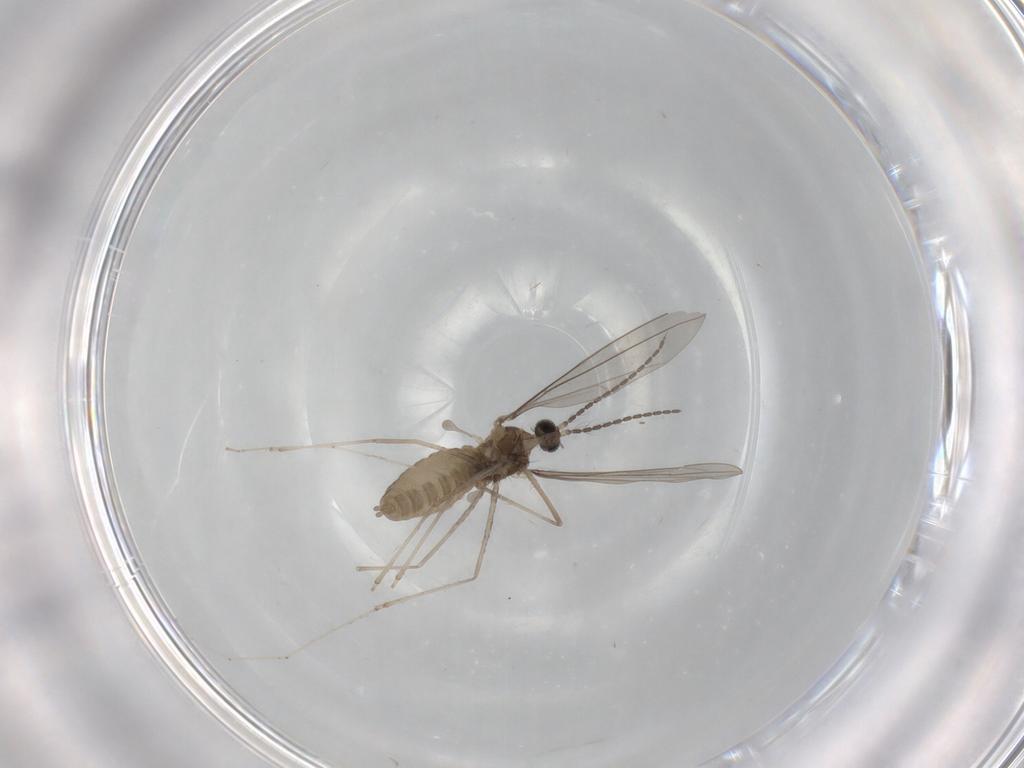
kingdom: Animalia
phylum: Arthropoda
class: Insecta
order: Diptera
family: Cecidomyiidae
